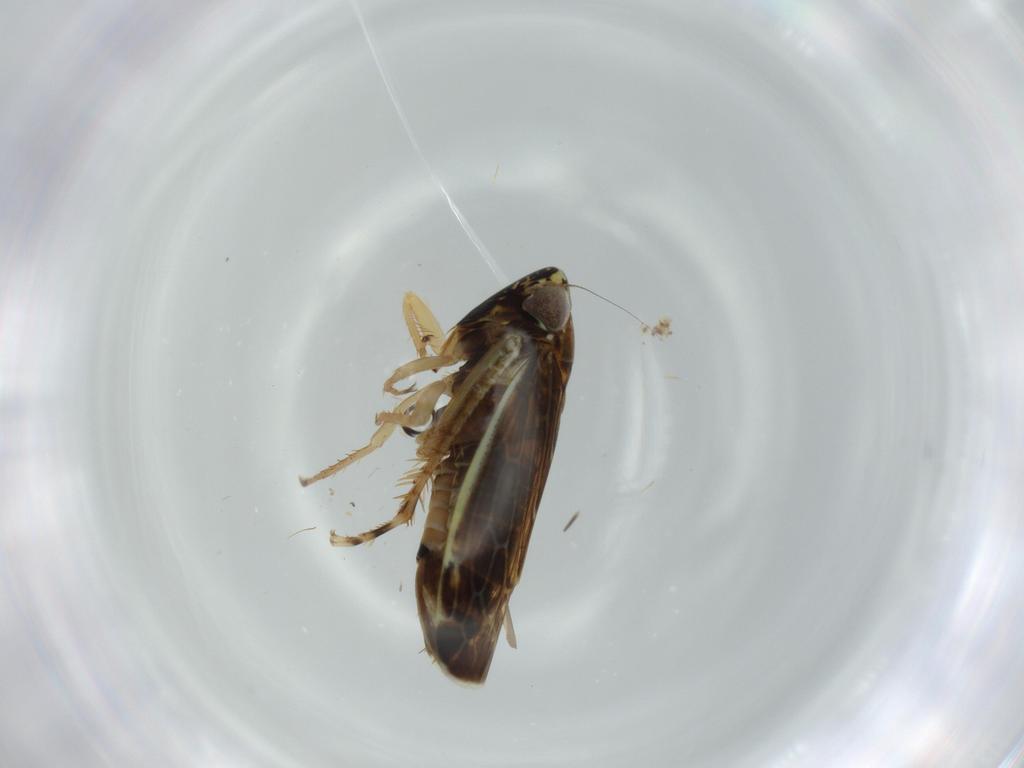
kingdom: Animalia
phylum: Arthropoda
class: Insecta
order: Hemiptera
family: Cicadellidae
